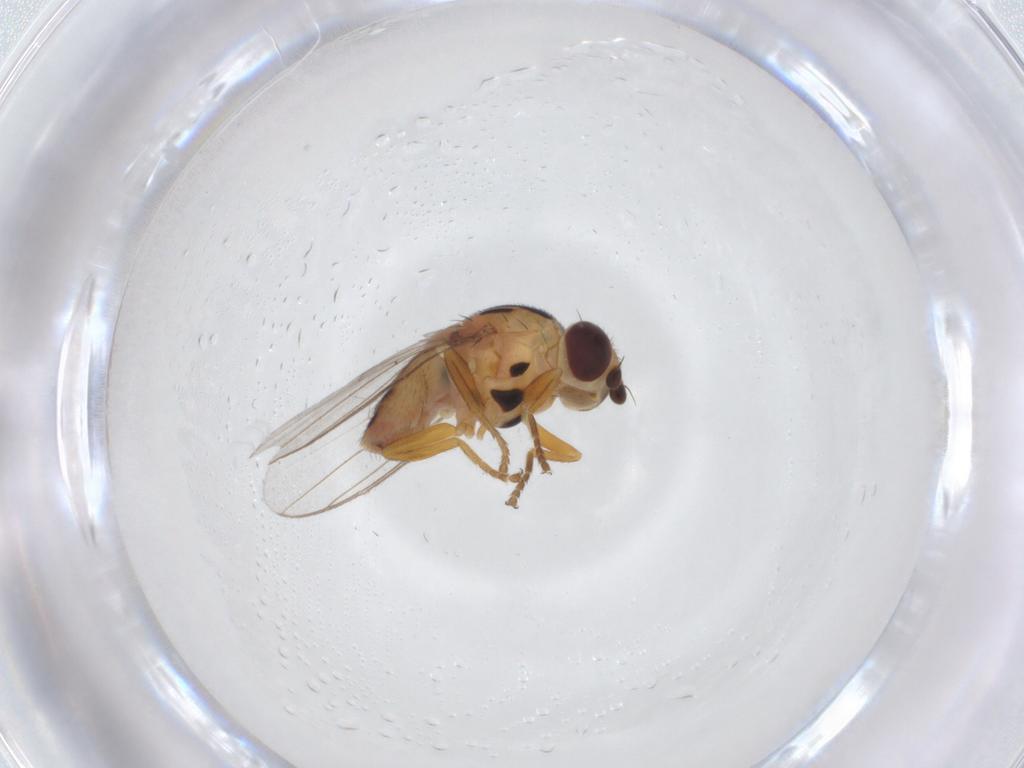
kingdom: Animalia
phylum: Arthropoda
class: Insecta
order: Diptera
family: Chloropidae
